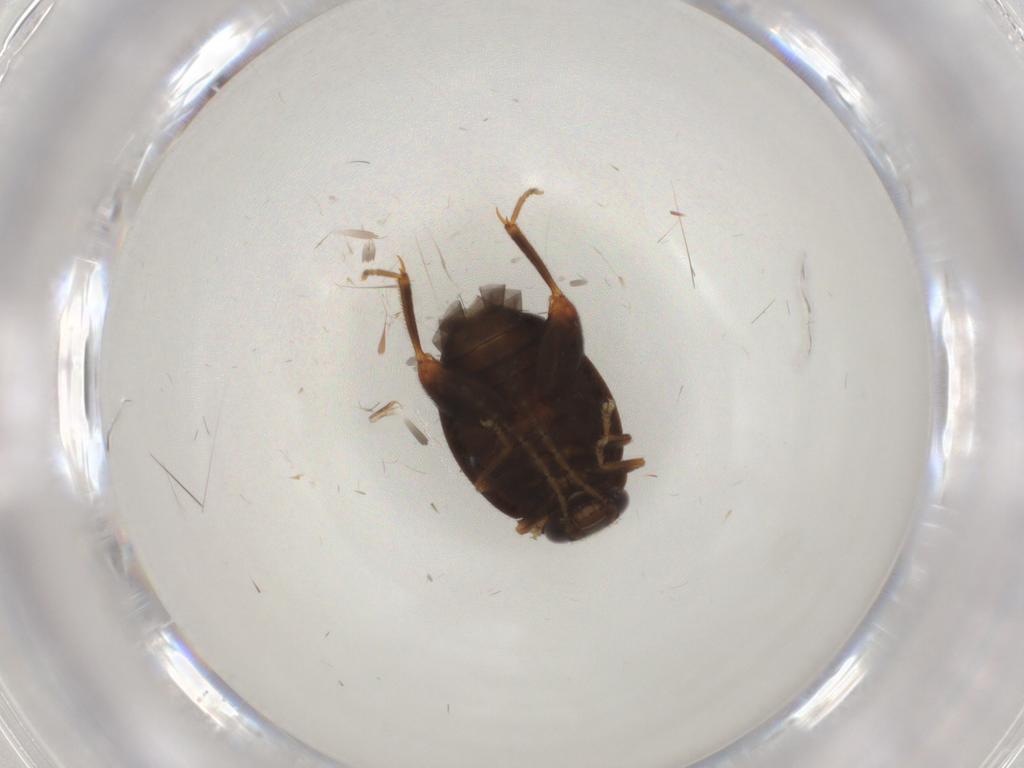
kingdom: Animalia
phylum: Arthropoda
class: Insecta
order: Coleoptera
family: Scirtidae
